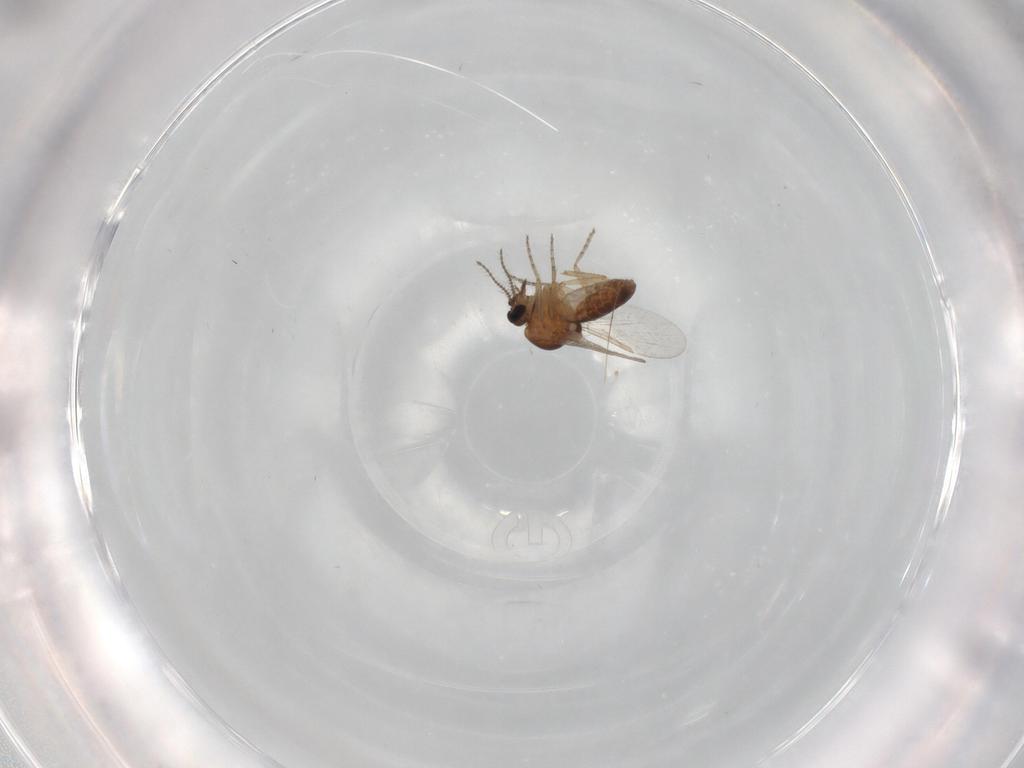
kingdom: Animalia
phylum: Arthropoda
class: Insecta
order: Diptera
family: Ceratopogonidae
